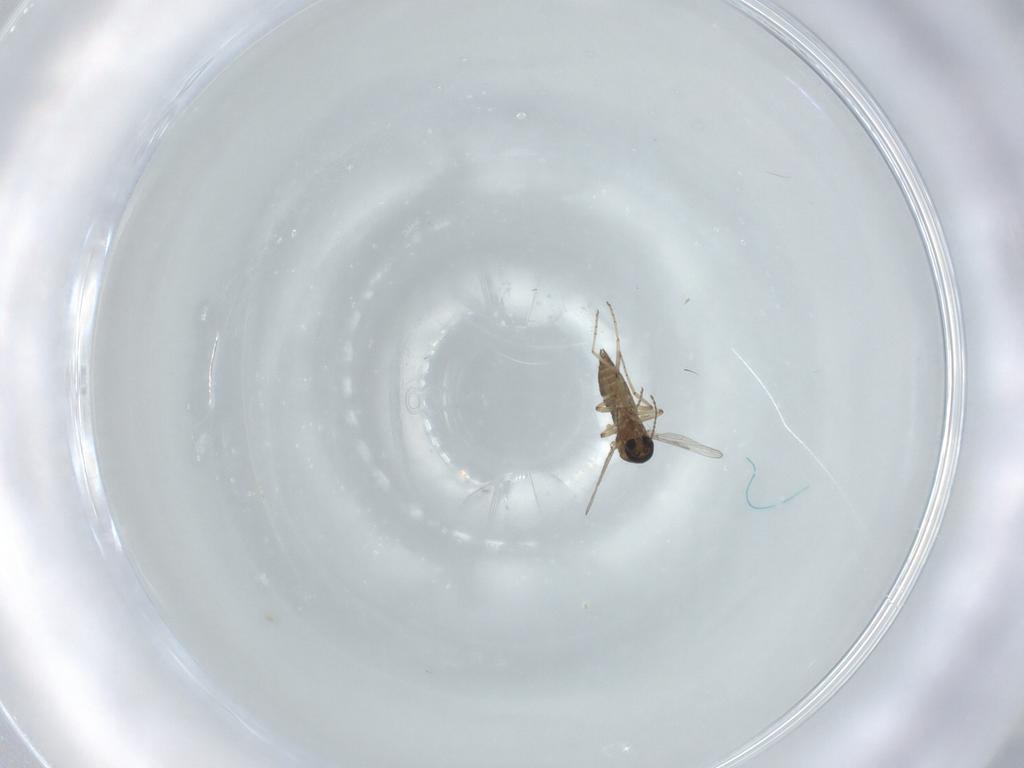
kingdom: Animalia
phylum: Arthropoda
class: Insecta
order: Diptera
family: Ceratopogonidae
